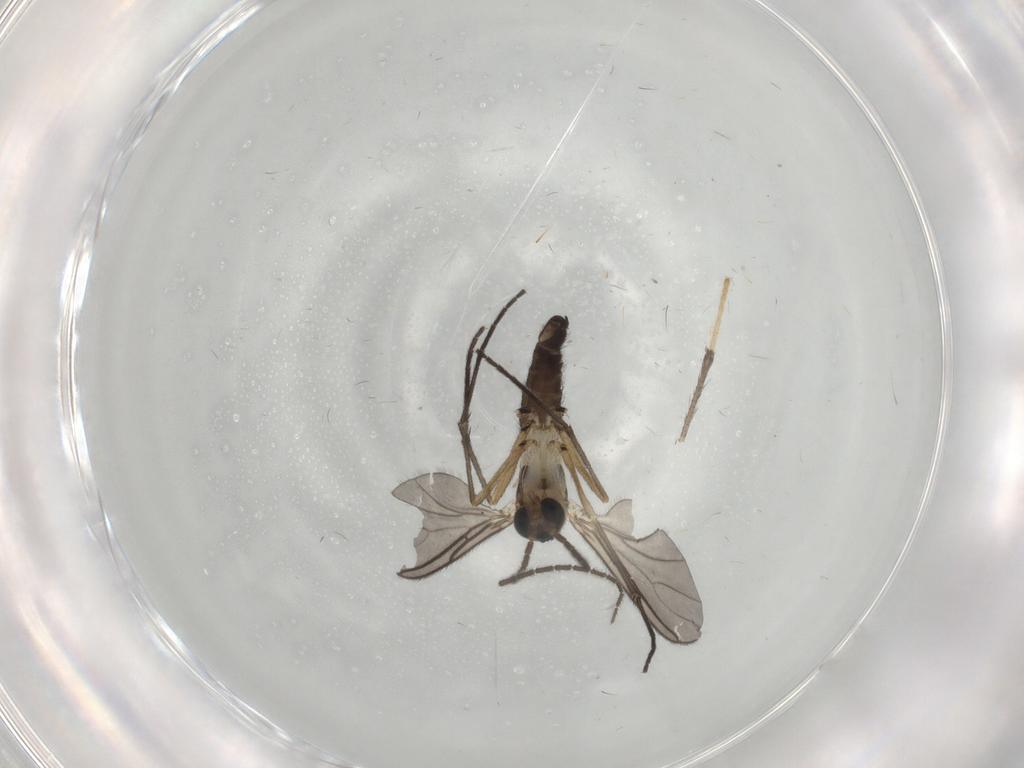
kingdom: Animalia
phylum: Arthropoda
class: Insecta
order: Diptera
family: Psychodidae
